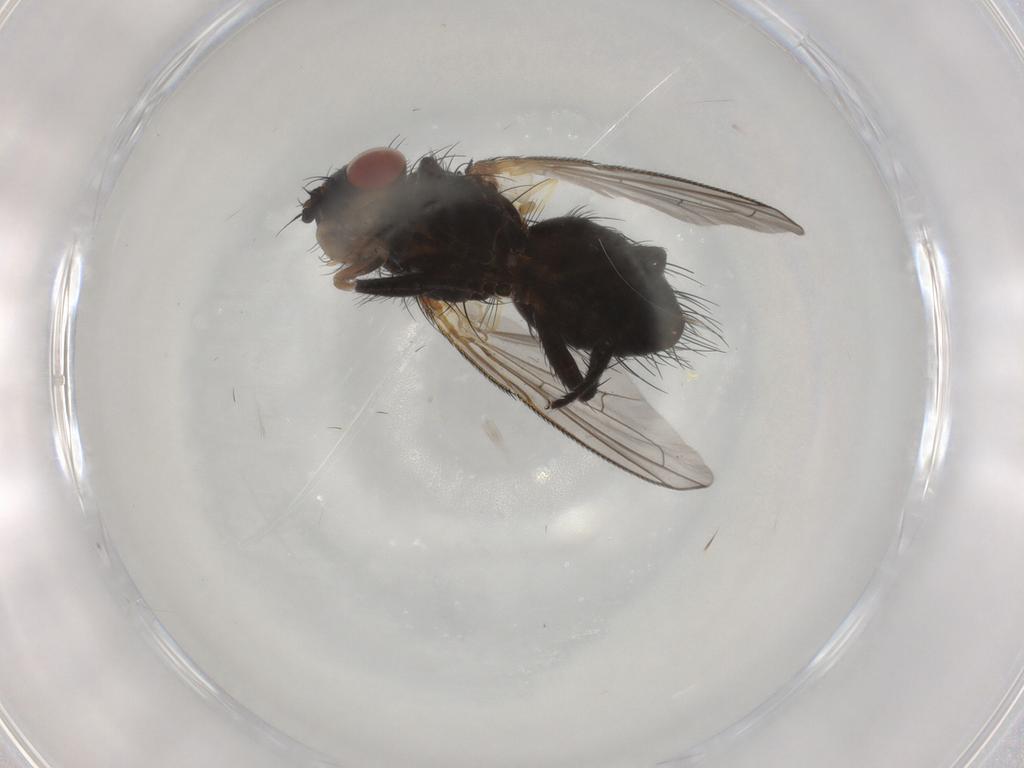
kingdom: Animalia
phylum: Arthropoda
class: Insecta
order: Diptera
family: Tachinidae
